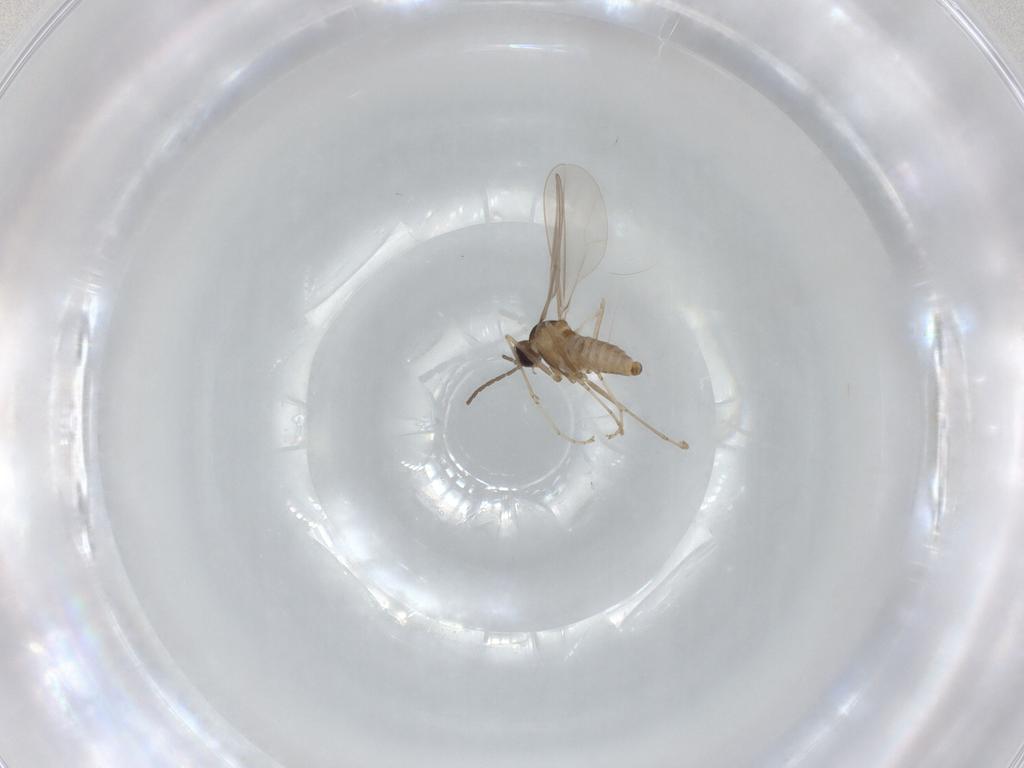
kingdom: Animalia
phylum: Arthropoda
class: Insecta
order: Diptera
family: Cecidomyiidae
